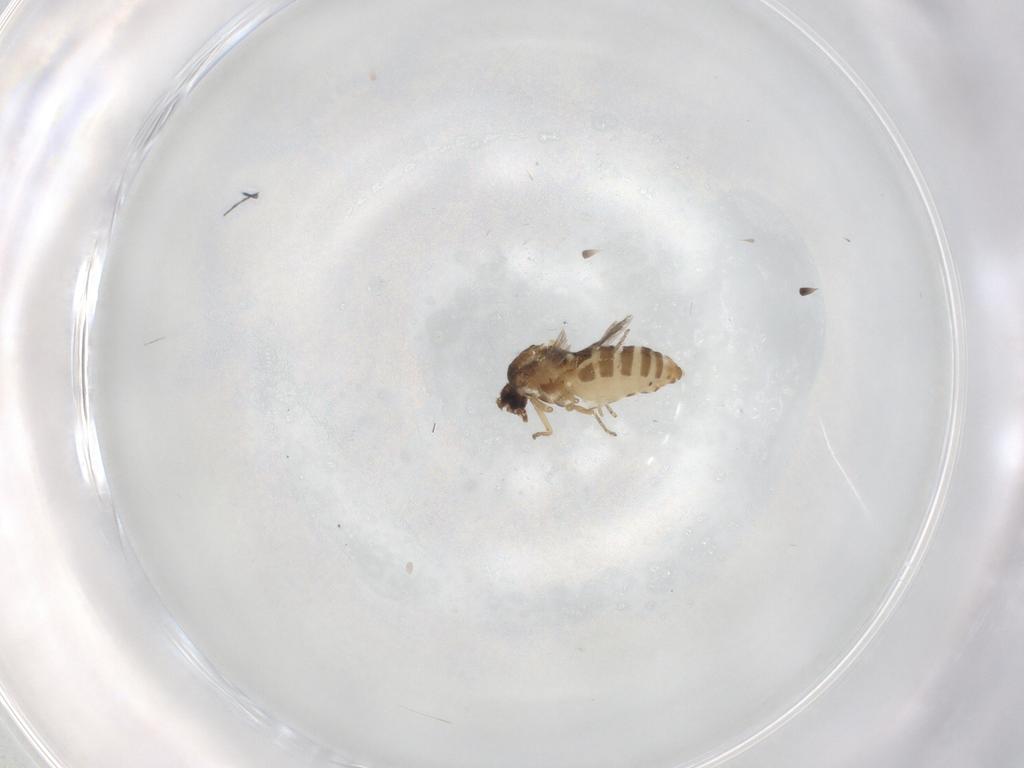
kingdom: Animalia
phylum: Arthropoda
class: Insecta
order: Diptera
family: Ceratopogonidae
